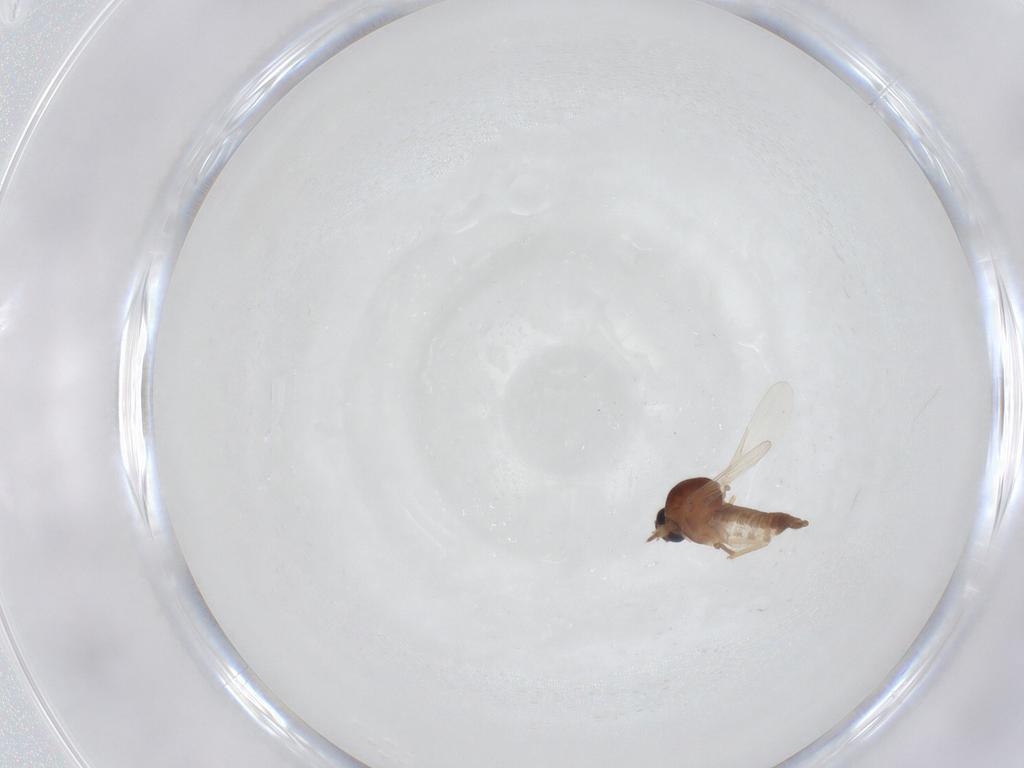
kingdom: Animalia
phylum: Arthropoda
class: Insecta
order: Diptera
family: Ceratopogonidae
